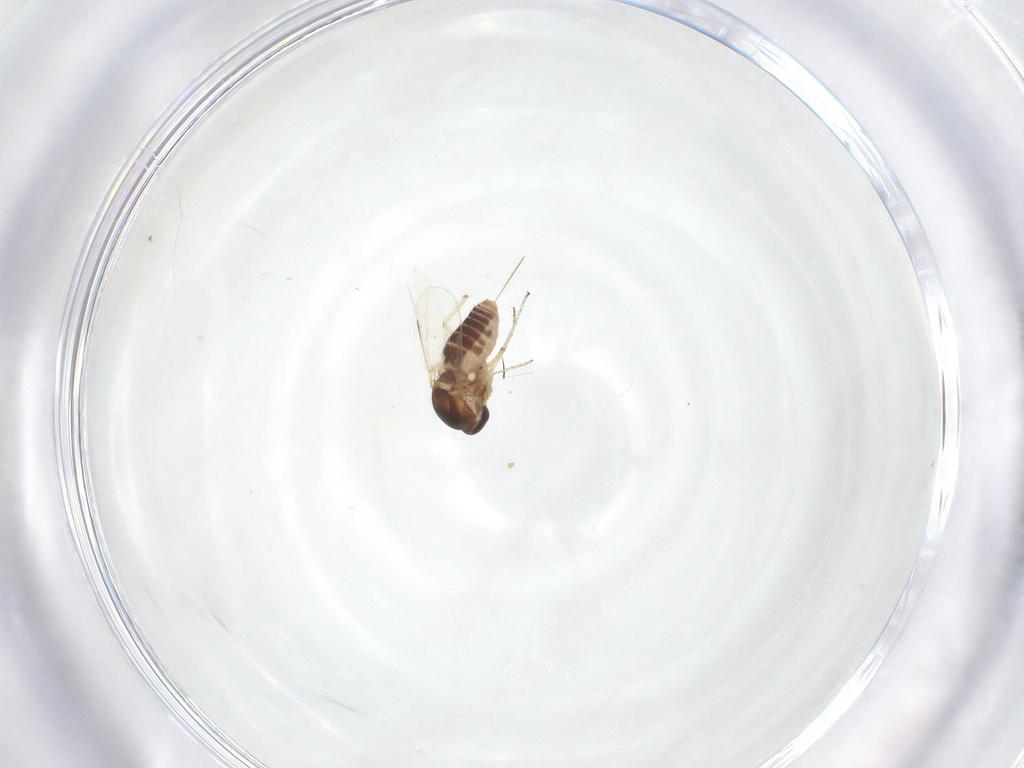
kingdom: Animalia
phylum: Arthropoda
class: Insecta
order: Diptera
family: Ceratopogonidae
